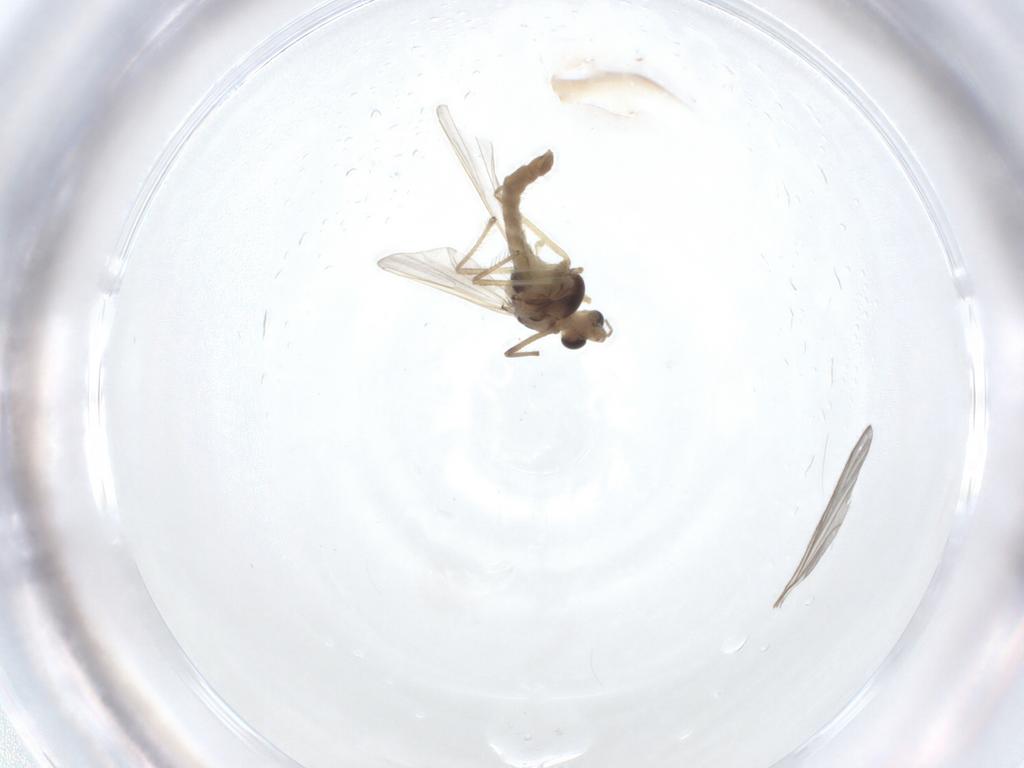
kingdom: Animalia
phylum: Arthropoda
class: Insecta
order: Diptera
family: Chironomidae
